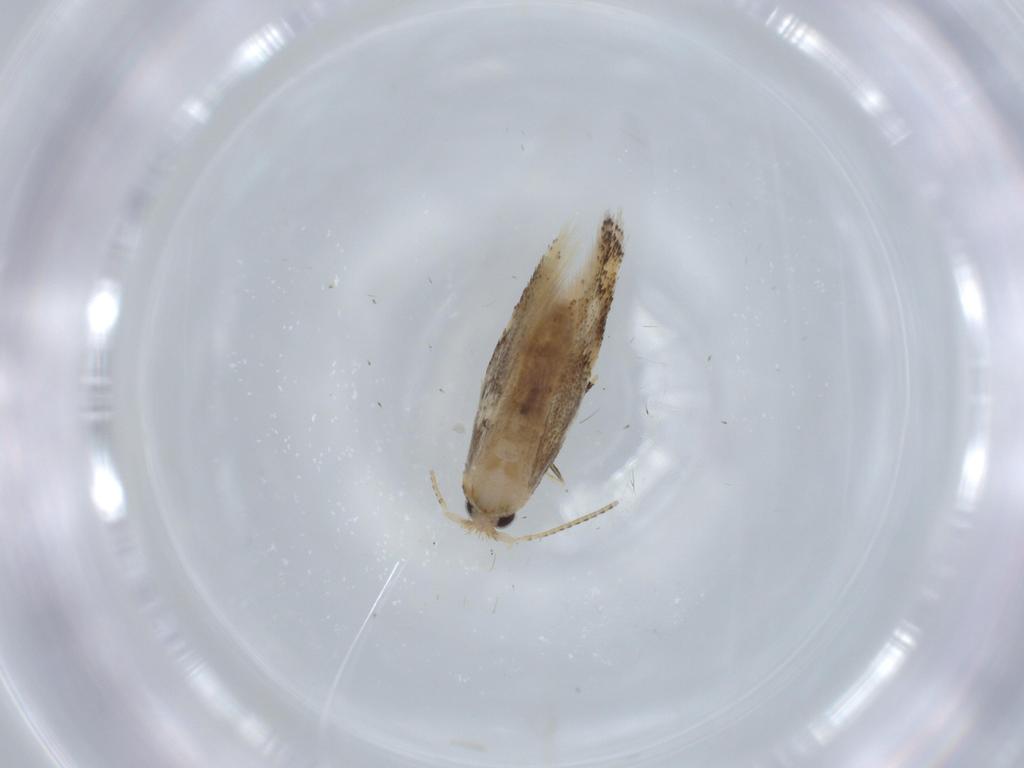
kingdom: Animalia
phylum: Arthropoda
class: Insecta
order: Lepidoptera
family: Bucculatricidae
